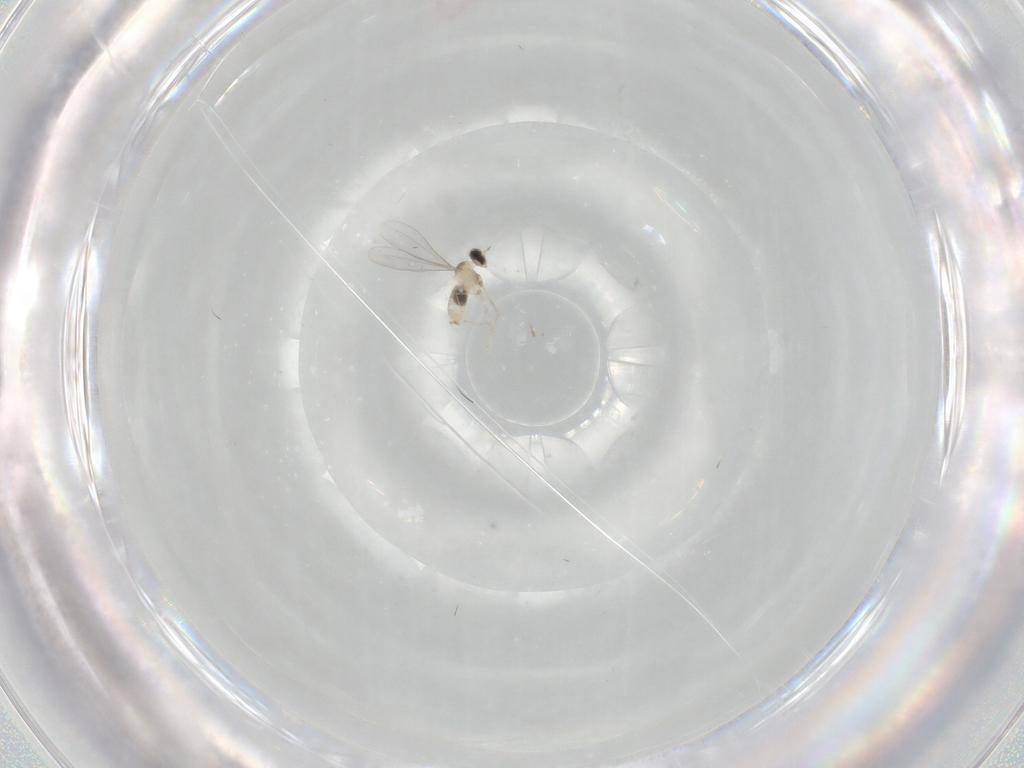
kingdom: Animalia
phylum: Arthropoda
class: Insecta
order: Diptera
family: Cecidomyiidae
